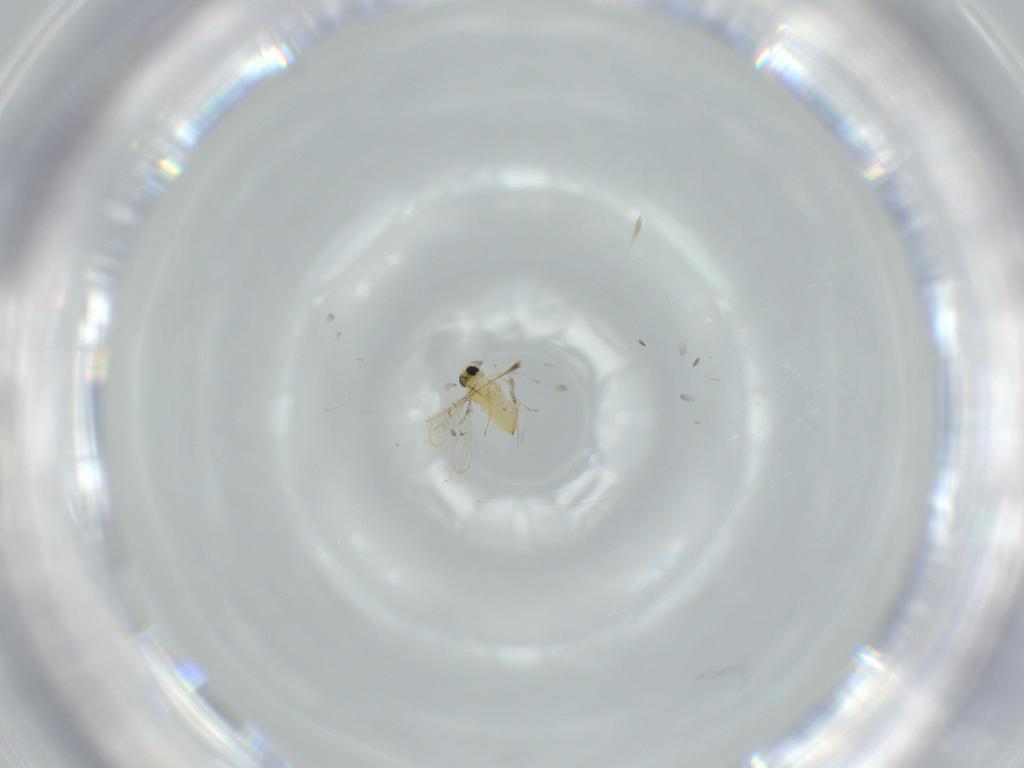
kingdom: Animalia
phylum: Arthropoda
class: Insecta
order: Hymenoptera
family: Trichogrammatidae
